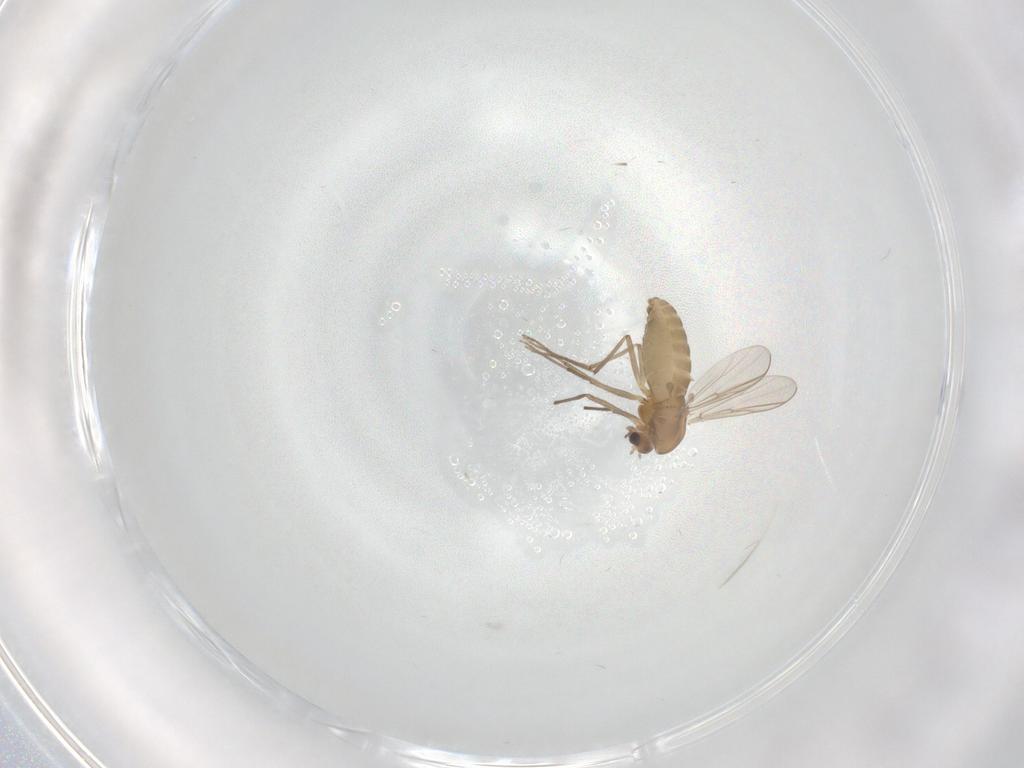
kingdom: Animalia
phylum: Arthropoda
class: Insecta
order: Diptera
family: Chironomidae
